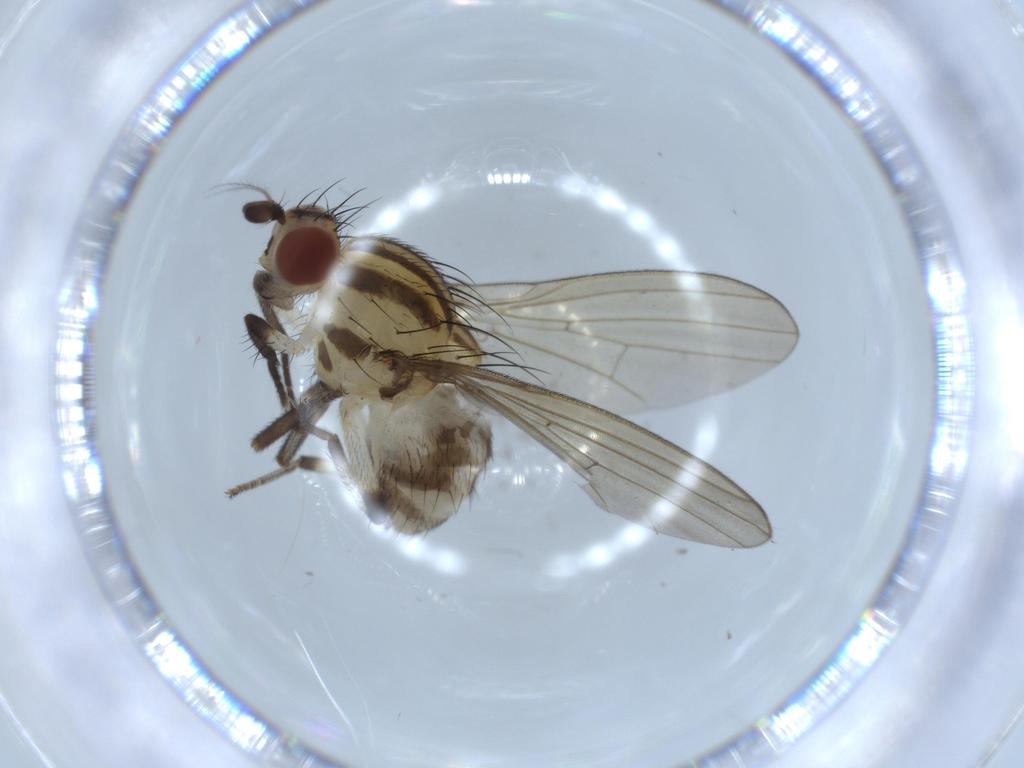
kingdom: Animalia
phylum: Arthropoda
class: Insecta
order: Diptera
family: Lauxaniidae
